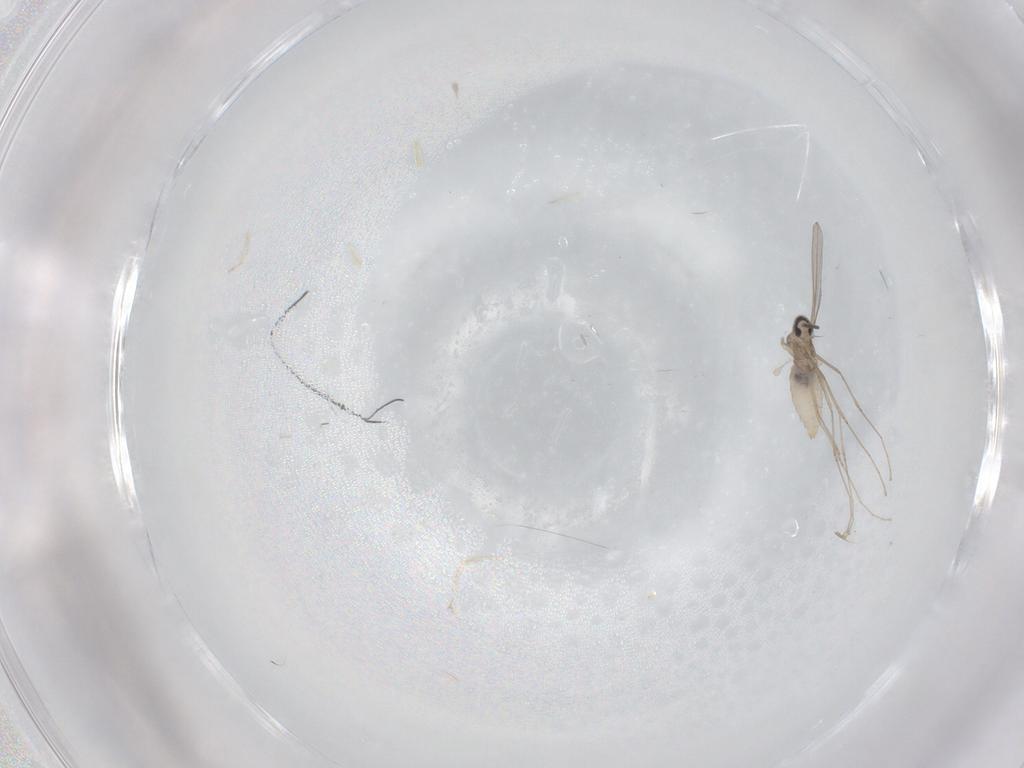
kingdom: Animalia
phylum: Arthropoda
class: Insecta
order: Diptera
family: Cecidomyiidae
